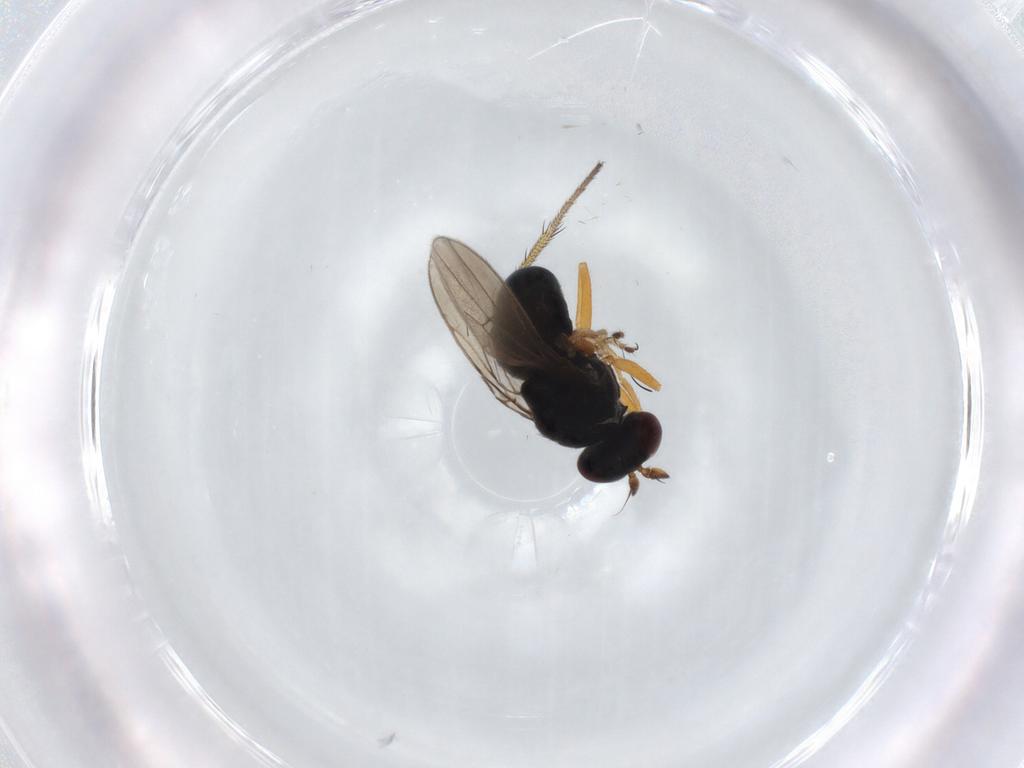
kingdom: Animalia
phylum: Arthropoda
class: Insecta
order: Diptera
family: Ephydridae
